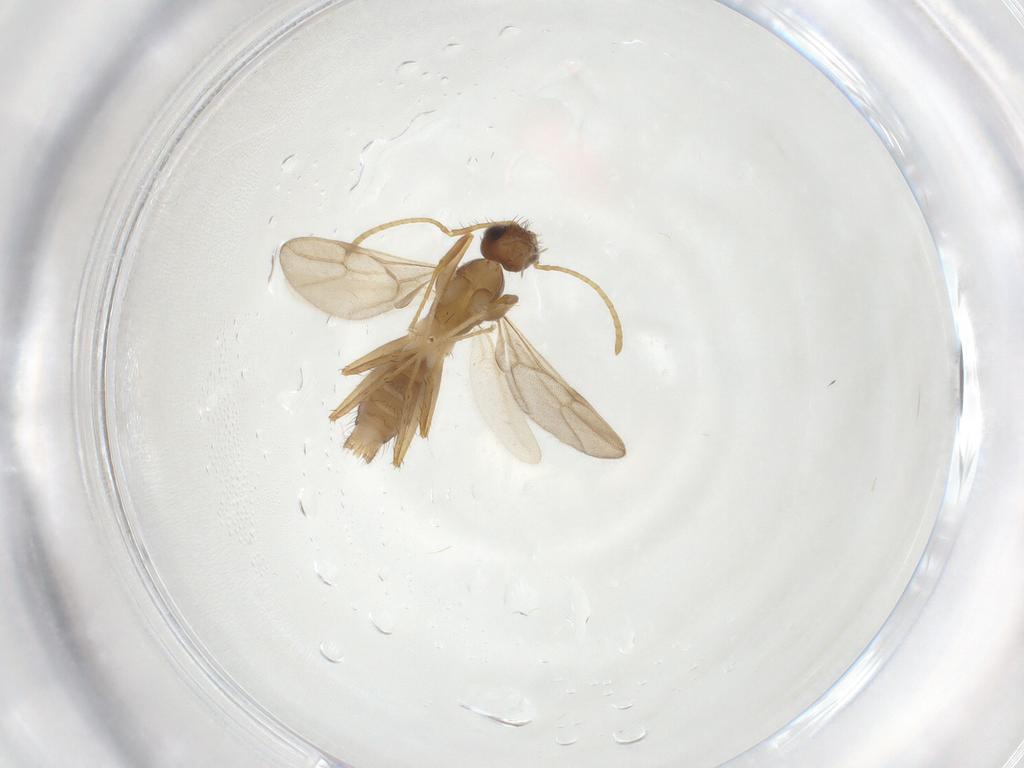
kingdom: Animalia
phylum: Arthropoda
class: Insecta
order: Hymenoptera
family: Formicidae
